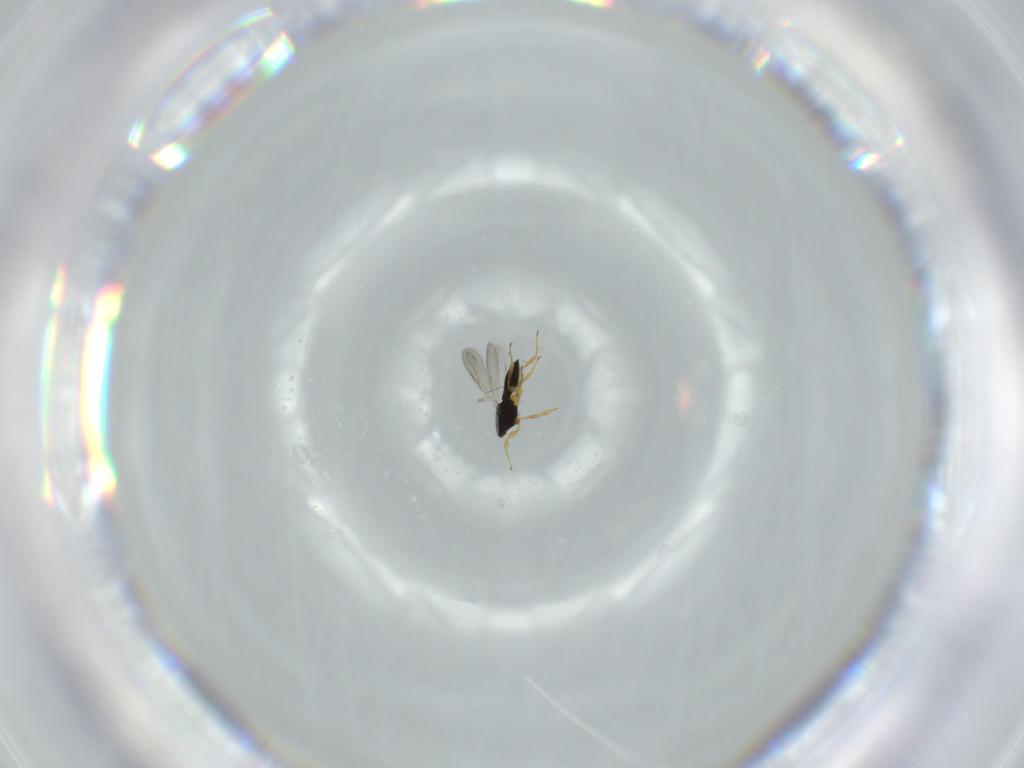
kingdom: Animalia
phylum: Arthropoda
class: Insecta
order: Hymenoptera
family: Scelionidae
